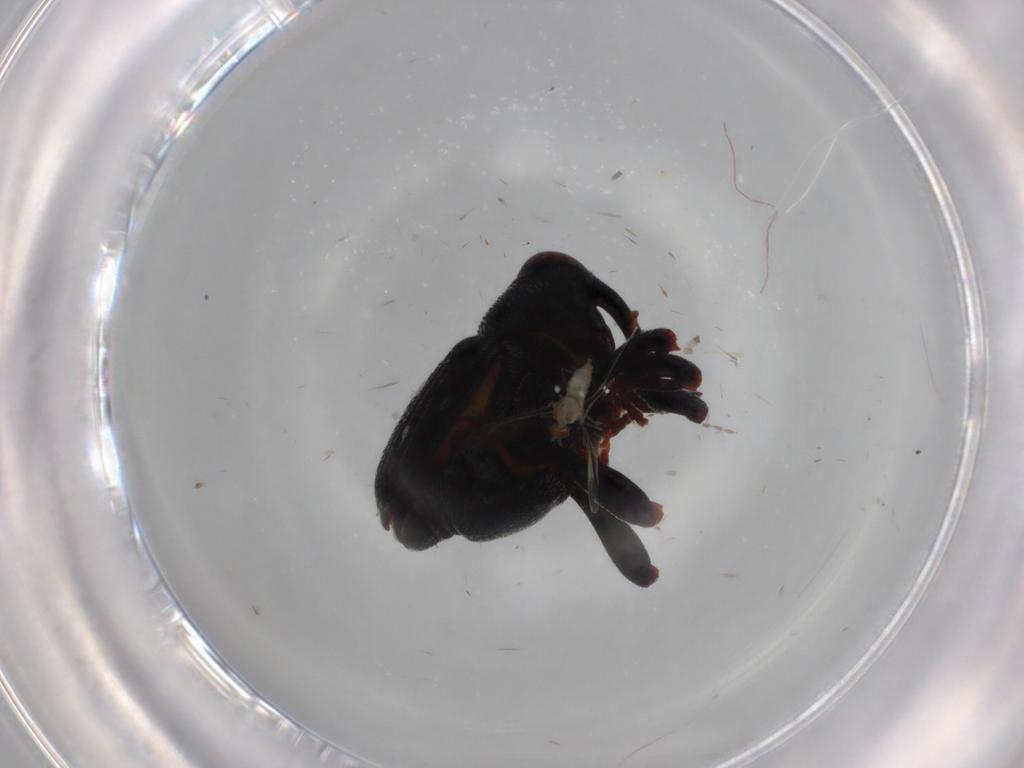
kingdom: Animalia
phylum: Arthropoda
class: Insecta
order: Coleoptera
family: Curculionidae
